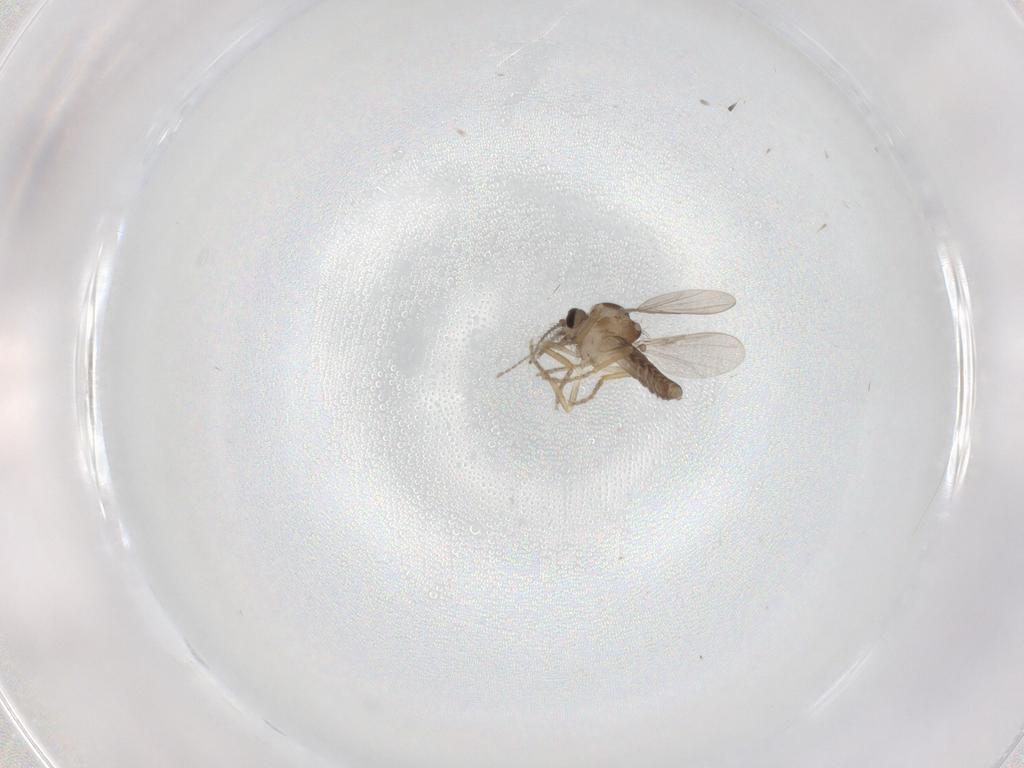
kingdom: Animalia
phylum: Arthropoda
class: Insecta
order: Diptera
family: Ceratopogonidae
